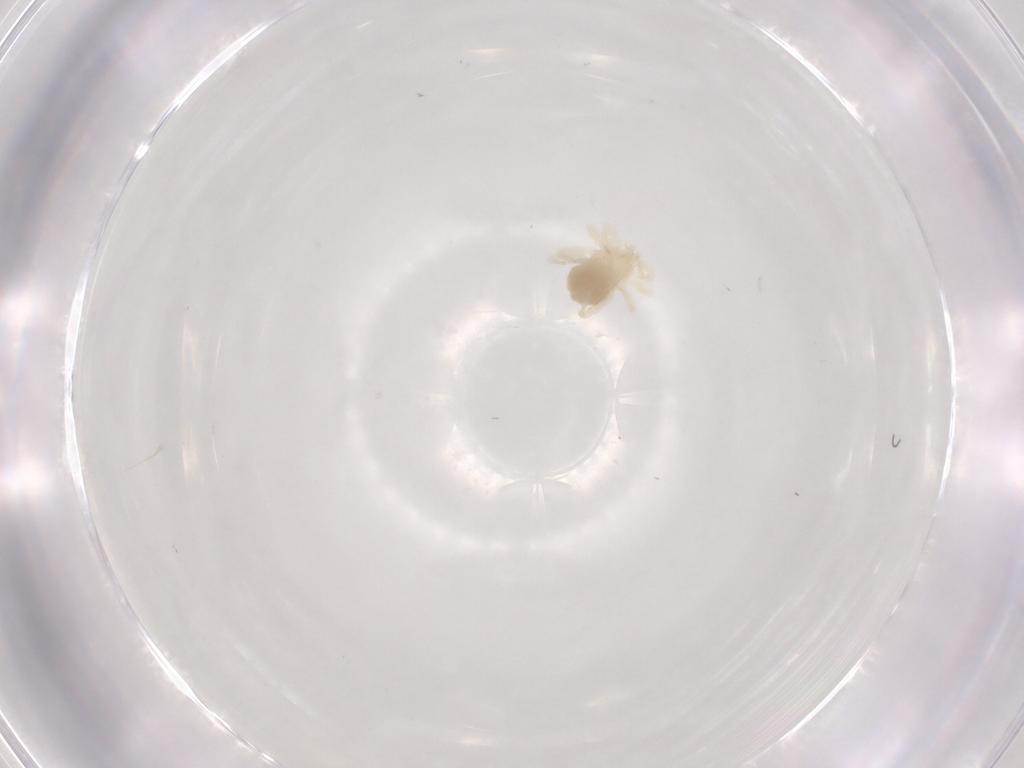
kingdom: Animalia
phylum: Arthropoda
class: Arachnida
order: Trombidiformes
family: Anystidae
